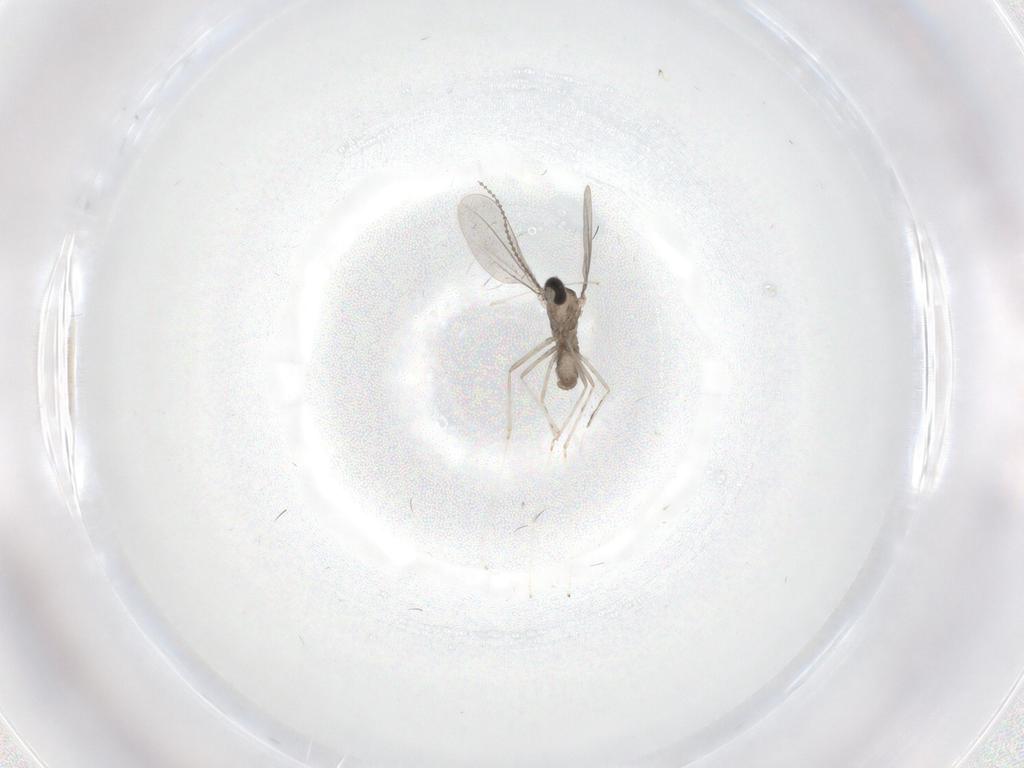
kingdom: Animalia
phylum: Arthropoda
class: Insecta
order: Diptera
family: Cecidomyiidae
